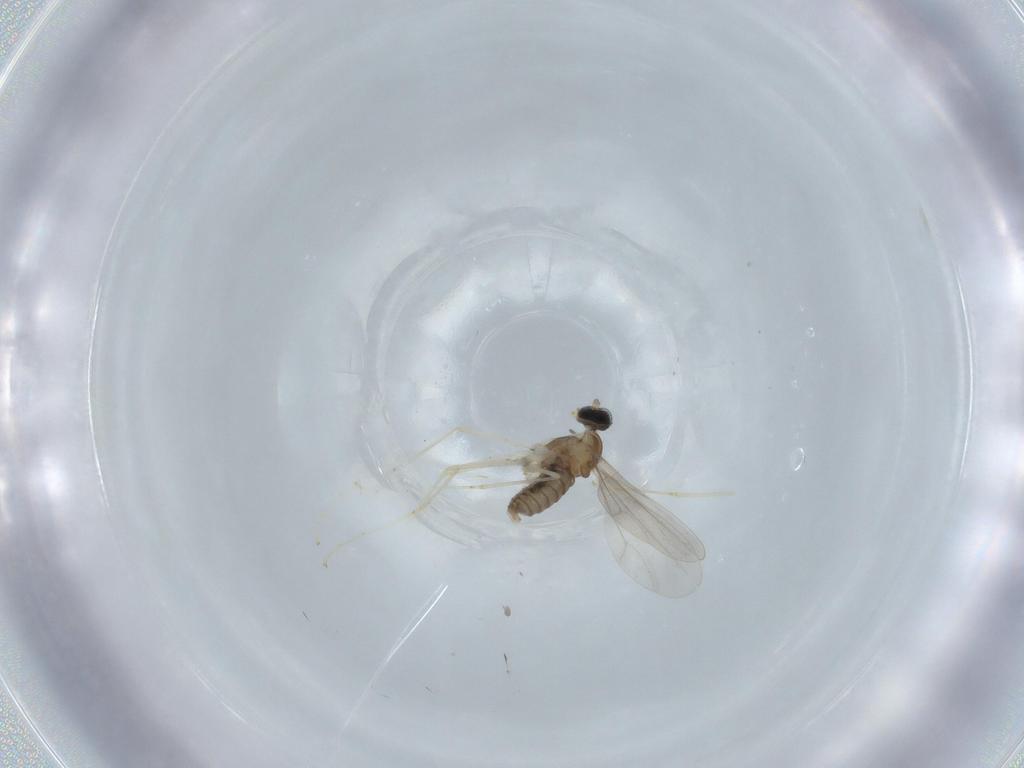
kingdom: Animalia
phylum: Arthropoda
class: Insecta
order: Diptera
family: Cecidomyiidae
